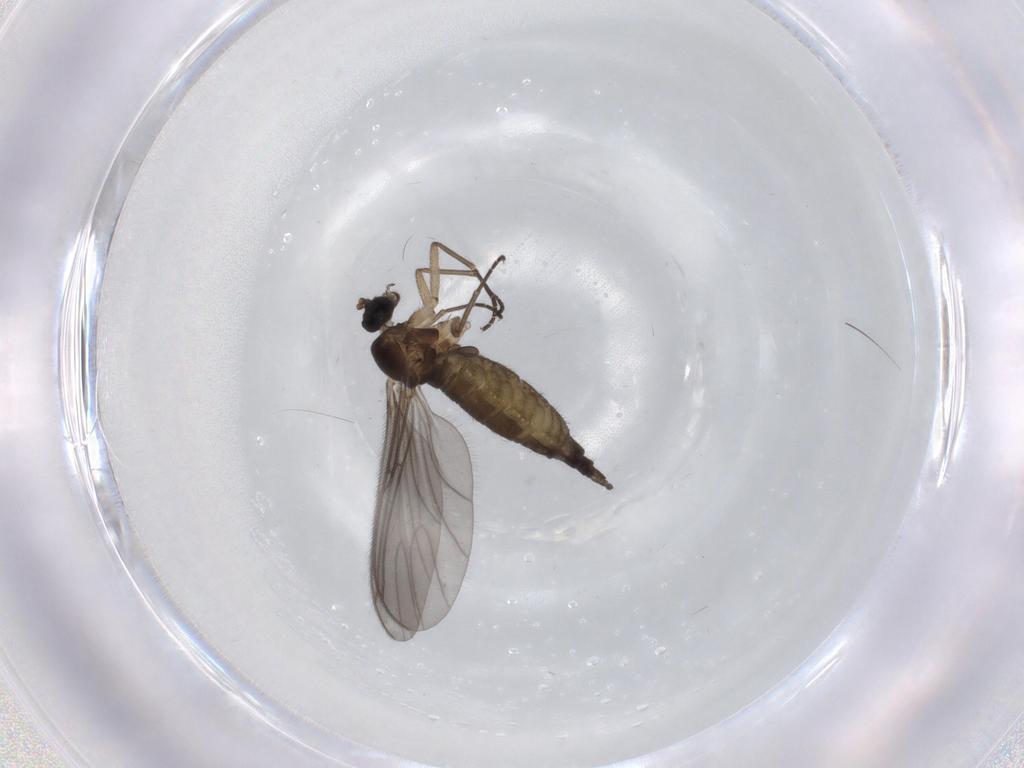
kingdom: Animalia
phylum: Arthropoda
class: Insecta
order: Diptera
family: Sciaridae
